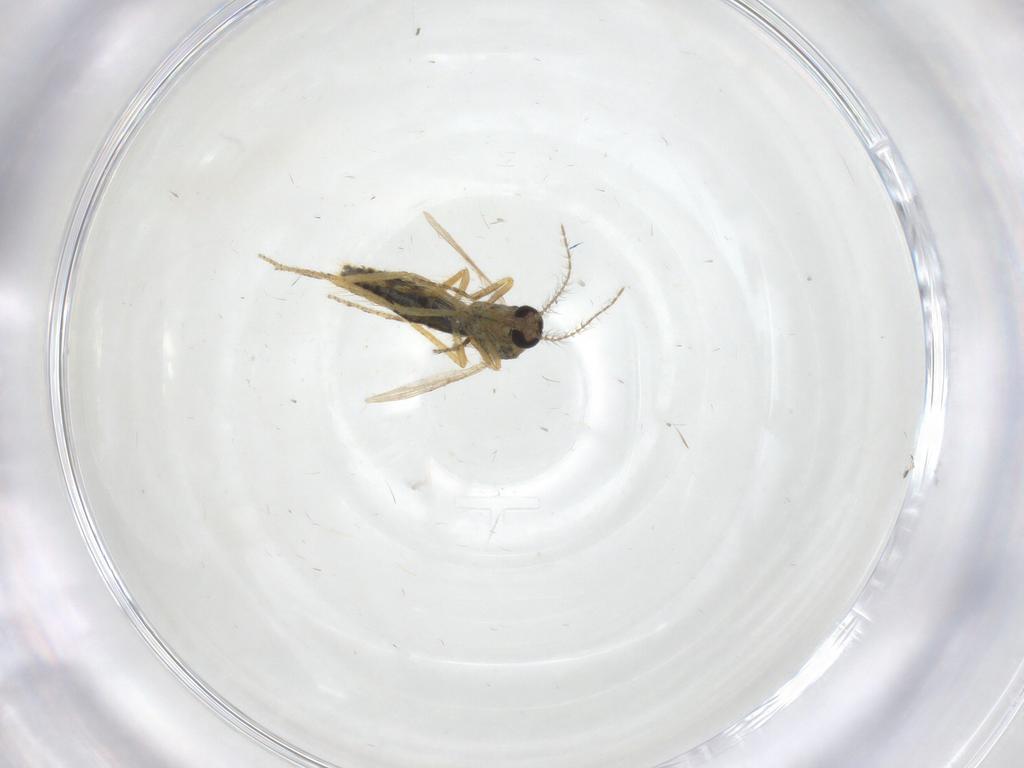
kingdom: Animalia
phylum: Arthropoda
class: Insecta
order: Diptera
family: Ceratopogonidae
